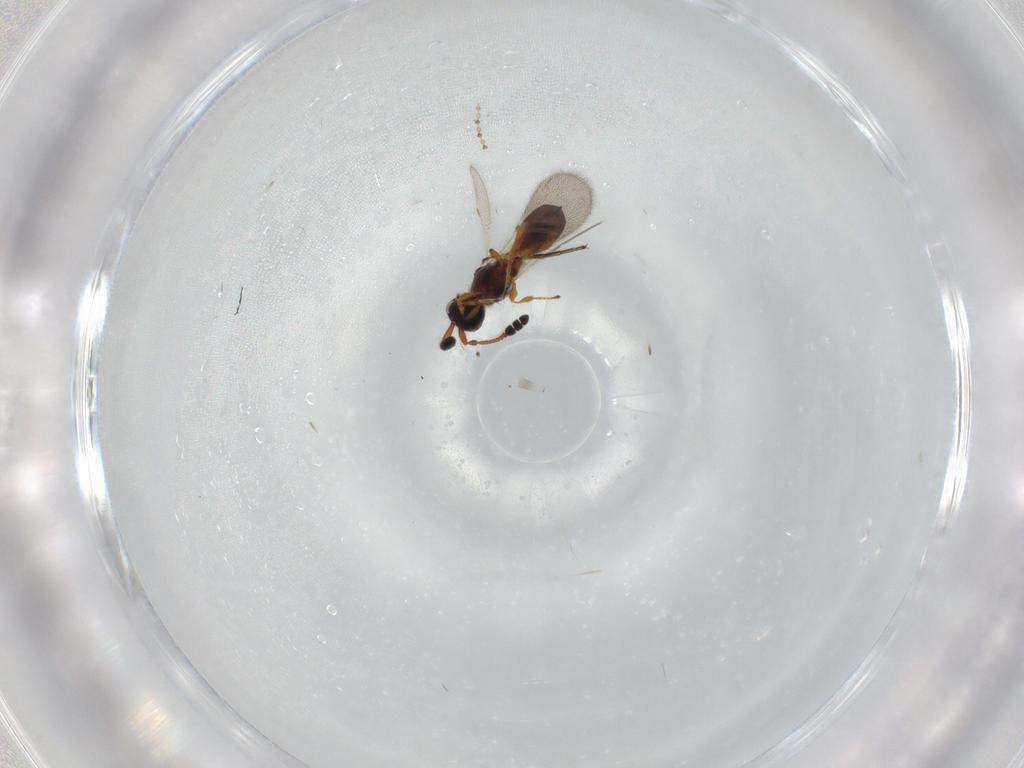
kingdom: Animalia
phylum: Arthropoda
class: Insecta
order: Hymenoptera
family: Diapriidae
